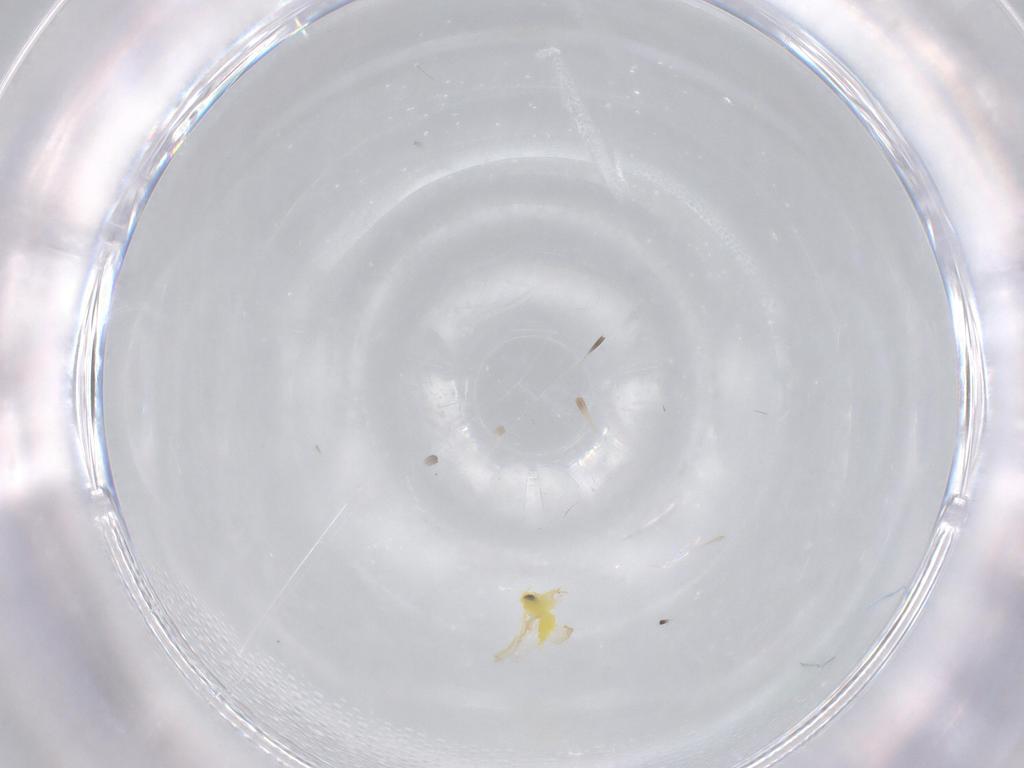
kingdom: Animalia
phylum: Arthropoda
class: Insecta
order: Hemiptera
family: Aleyrodidae
